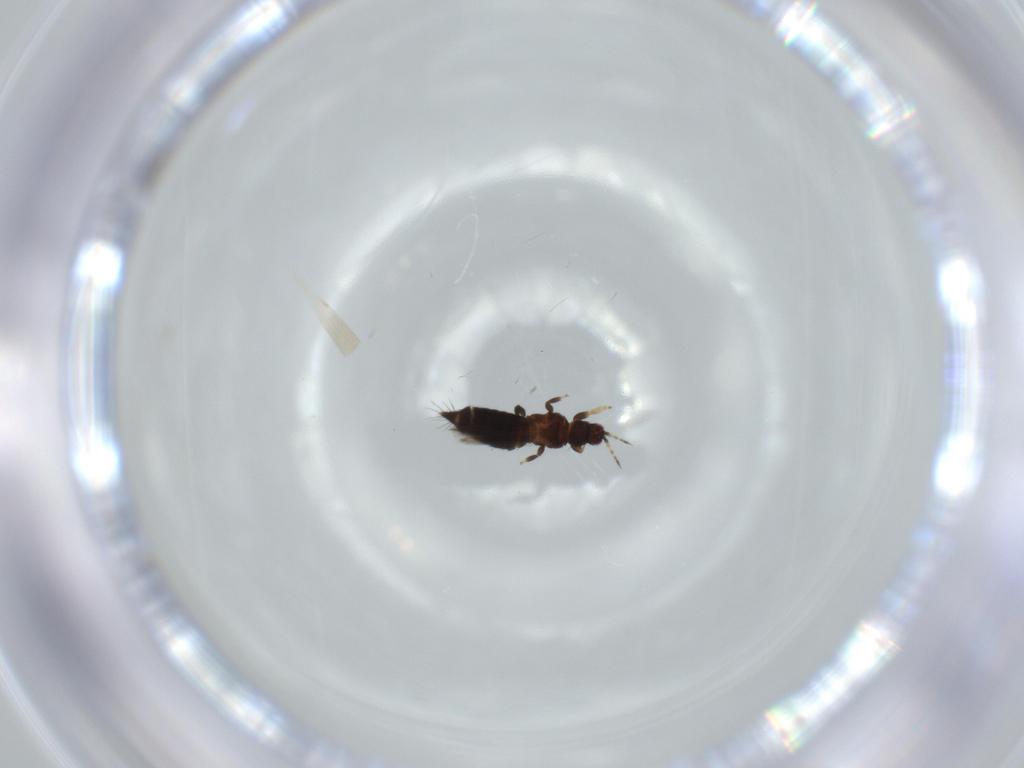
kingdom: Animalia
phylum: Arthropoda
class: Insecta
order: Thysanoptera
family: Thripidae
